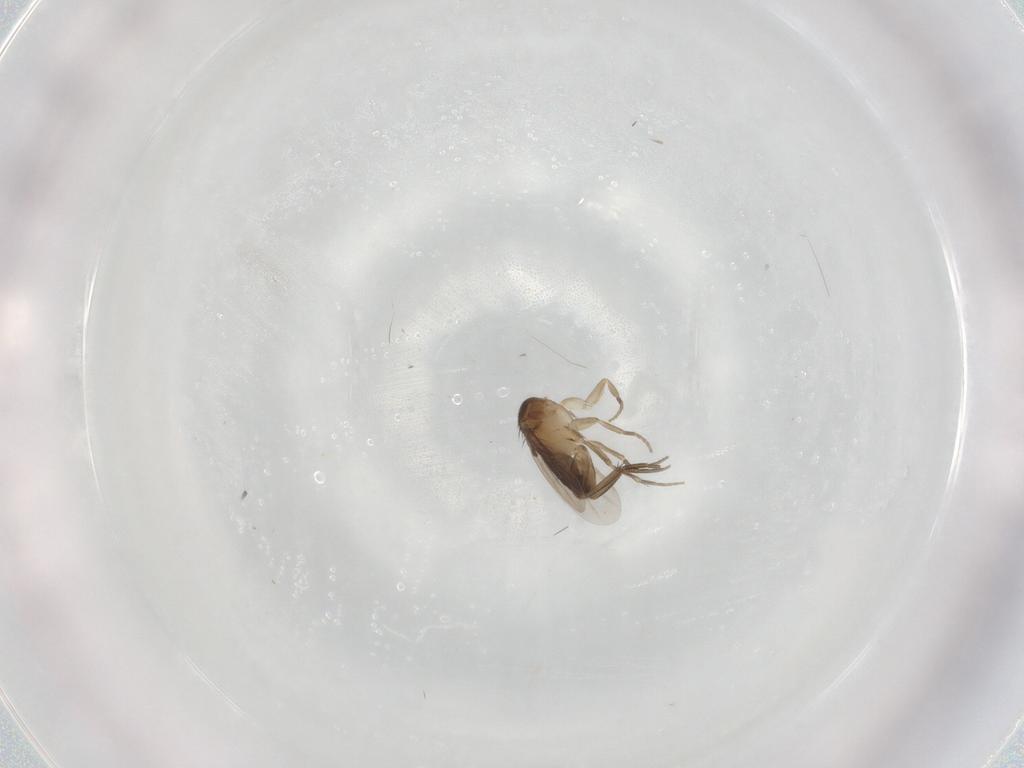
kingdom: Animalia
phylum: Arthropoda
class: Insecta
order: Diptera
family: Phoridae
